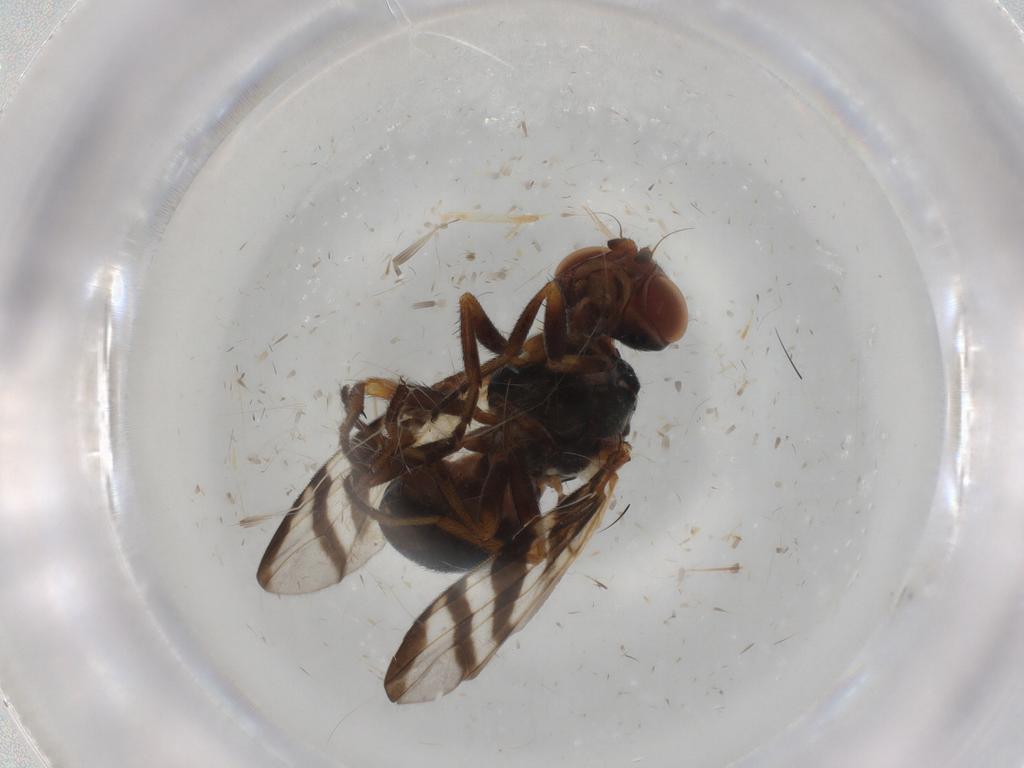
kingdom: Animalia
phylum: Arthropoda
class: Insecta
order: Diptera
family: Platystomatidae
